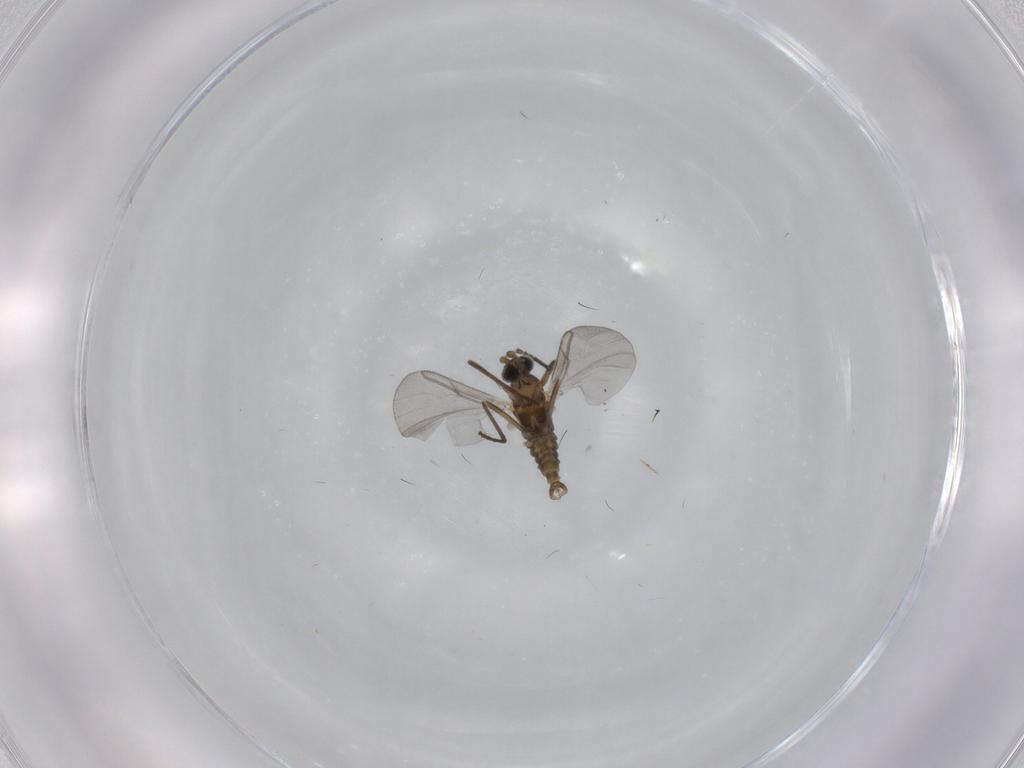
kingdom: Animalia
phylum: Arthropoda
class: Insecta
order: Diptera
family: Cecidomyiidae
